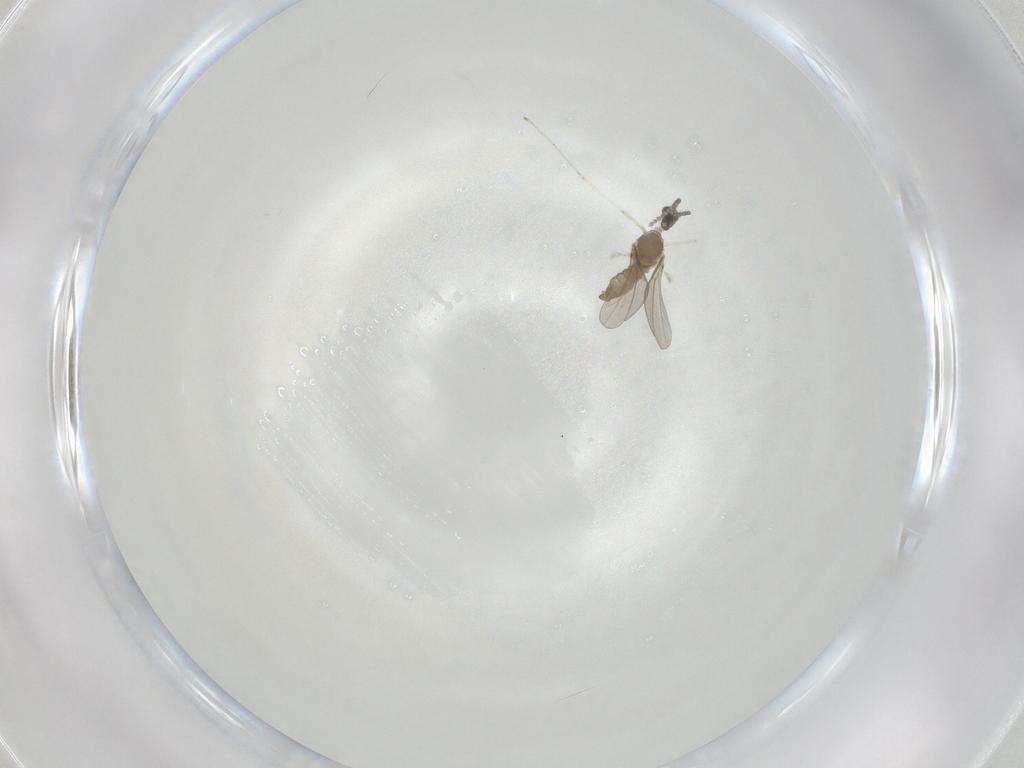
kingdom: Animalia
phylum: Arthropoda
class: Insecta
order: Diptera
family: Cecidomyiidae
